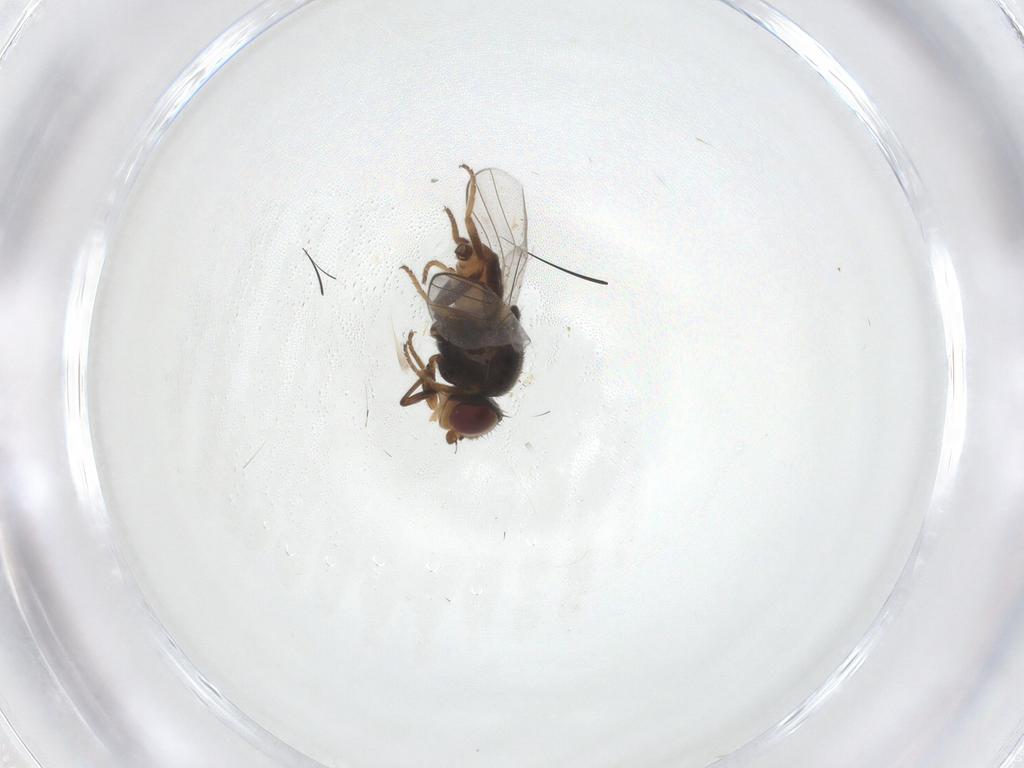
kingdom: Animalia
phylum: Arthropoda
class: Insecta
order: Diptera
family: Chloropidae
